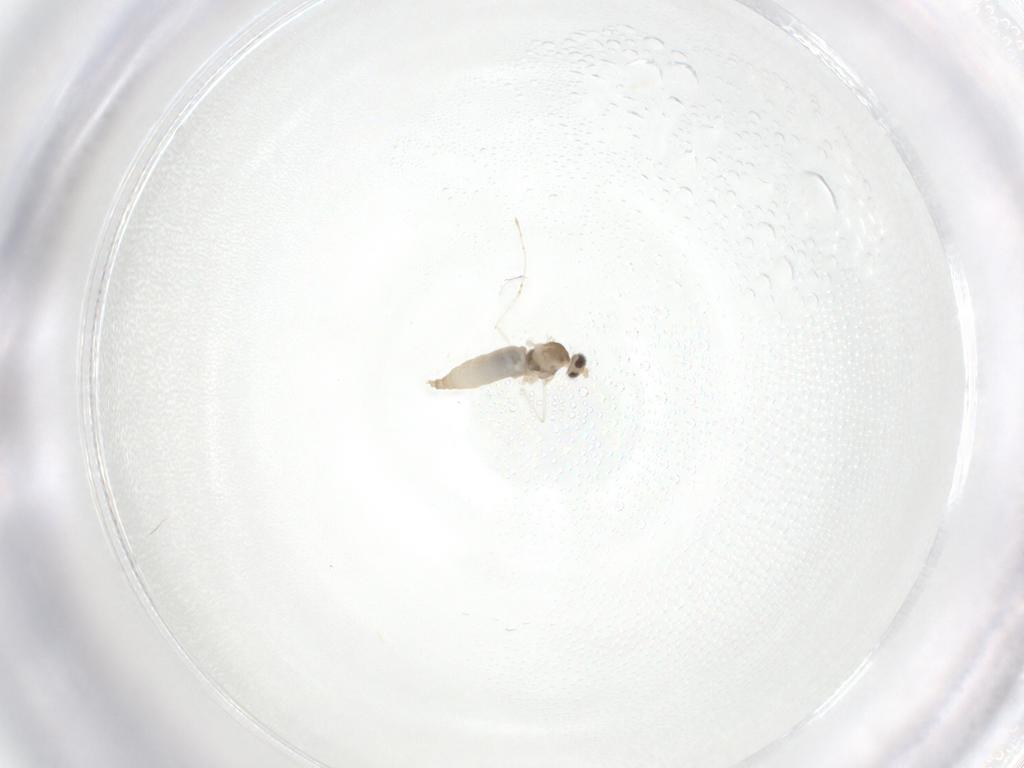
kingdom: Animalia
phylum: Arthropoda
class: Insecta
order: Diptera
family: Cecidomyiidae
